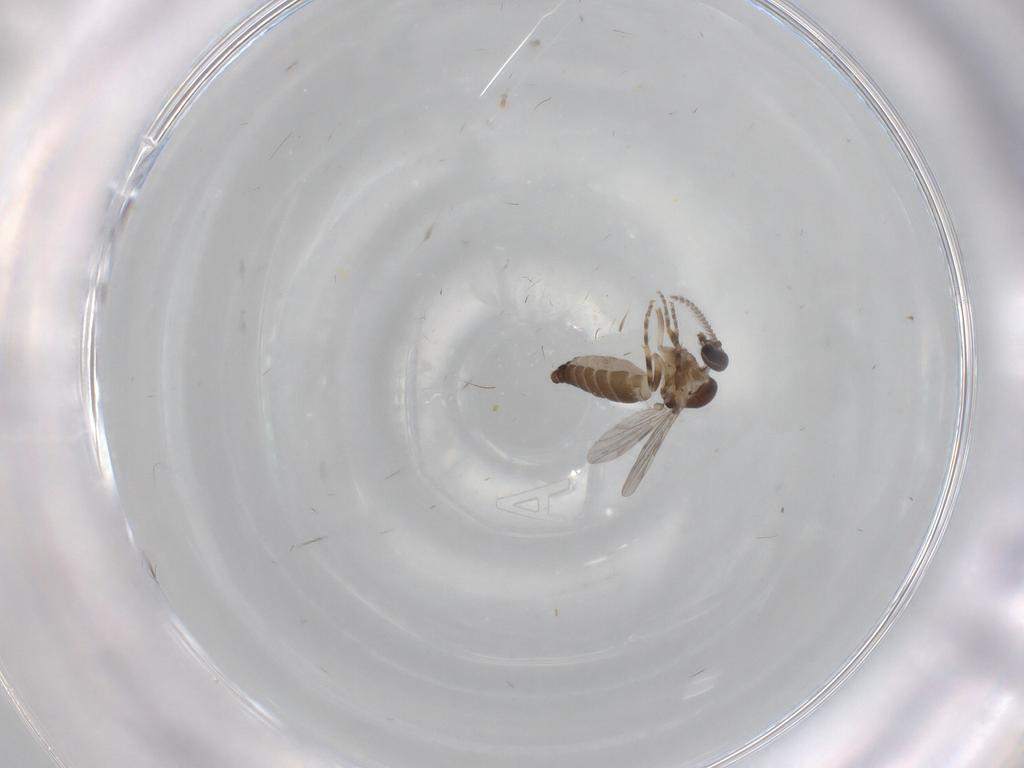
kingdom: Animalia
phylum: Arthropoda
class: Insecta
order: Diptera
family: Ceratopogonidae
